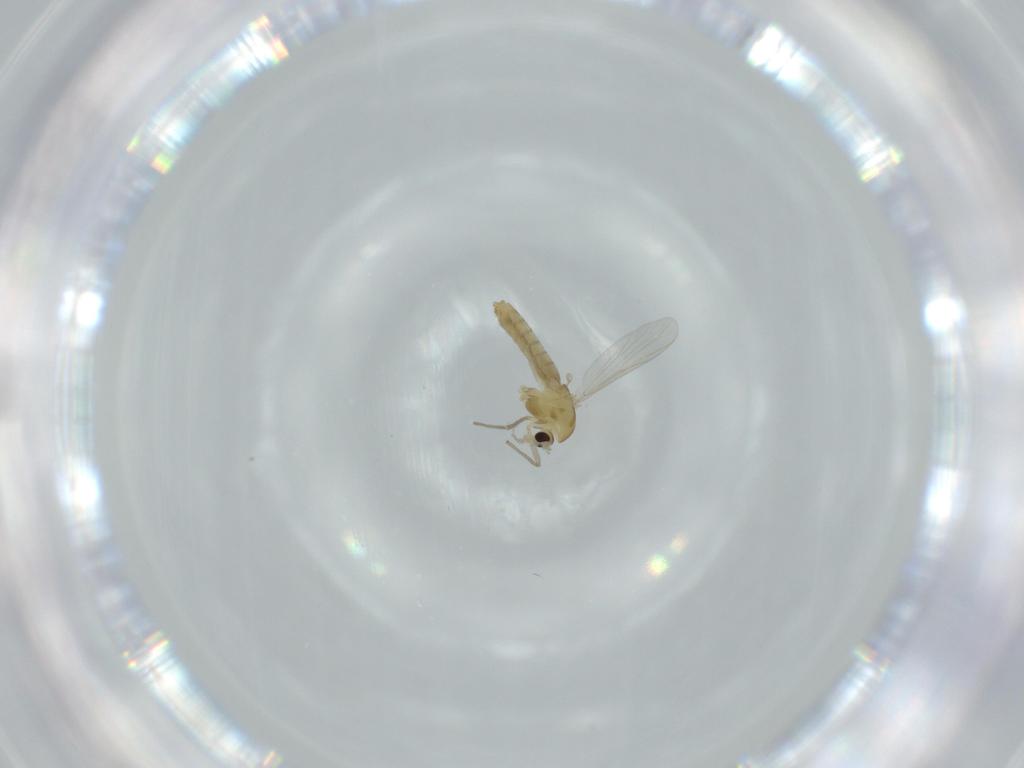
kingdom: Animalia
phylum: Arthropoda
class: Insecta
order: Diptera
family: Chironomidae
